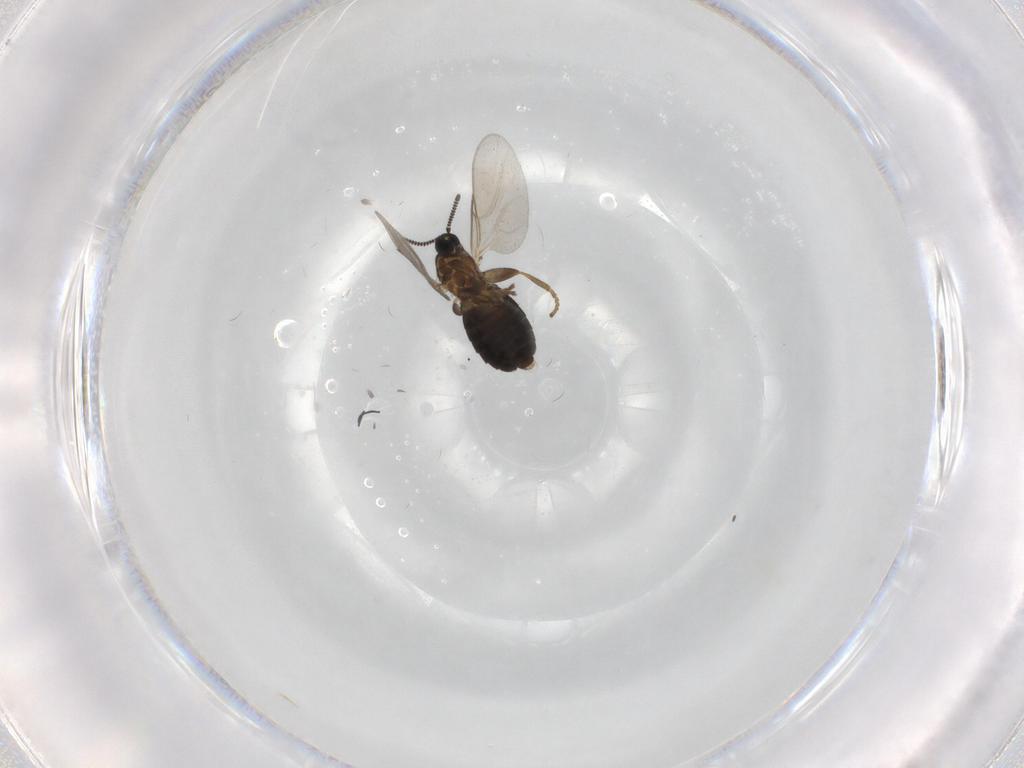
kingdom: Animalia
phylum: Arthropoda
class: Insecta
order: Diptera
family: Scatopsidae
